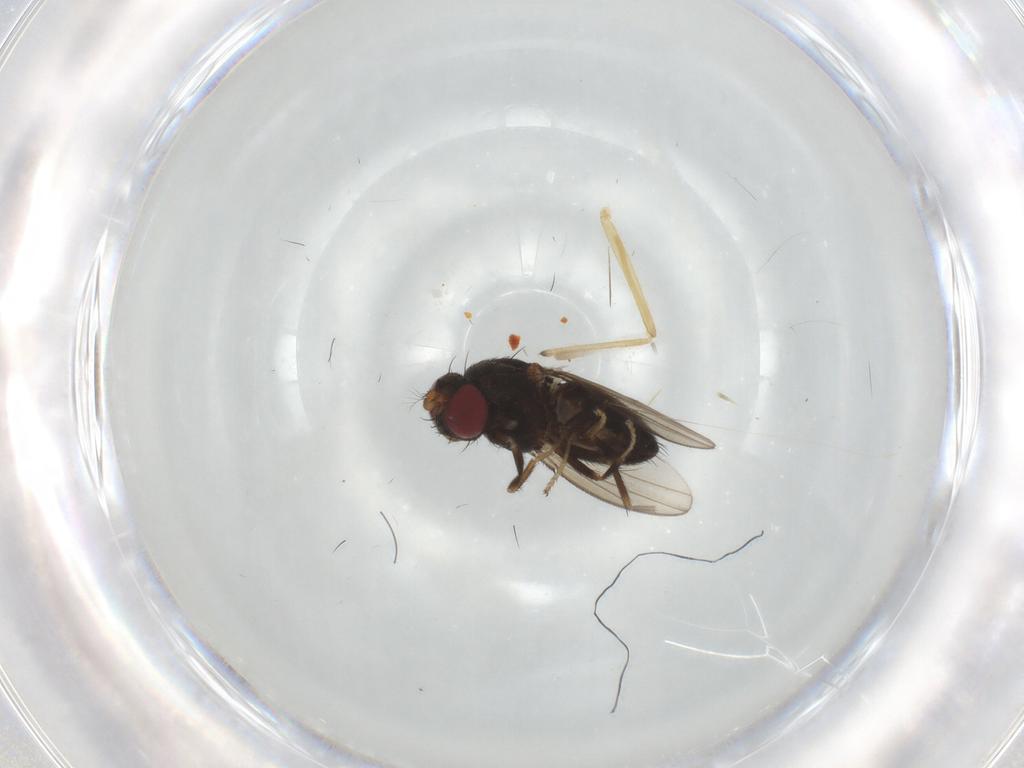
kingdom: Animalia
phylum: Arthropoda
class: Insecta
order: Diptera
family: Ephydridae
